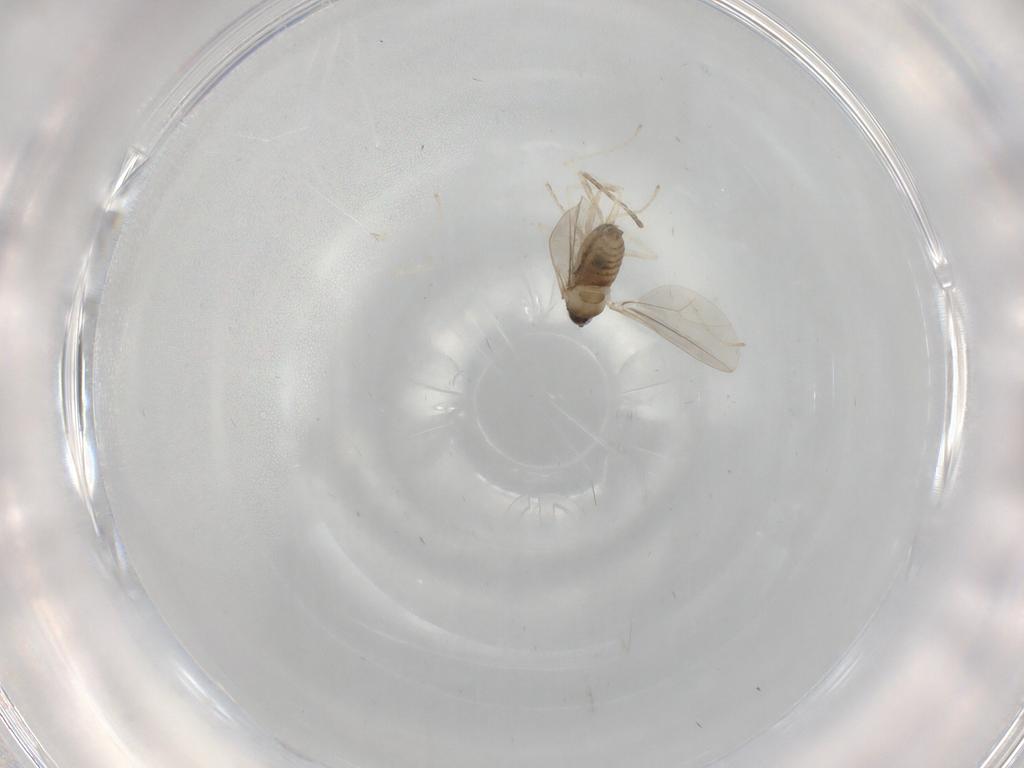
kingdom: Animalia
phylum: Arthropoda
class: Insecta
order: Diptera
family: Cecidomyiidae
